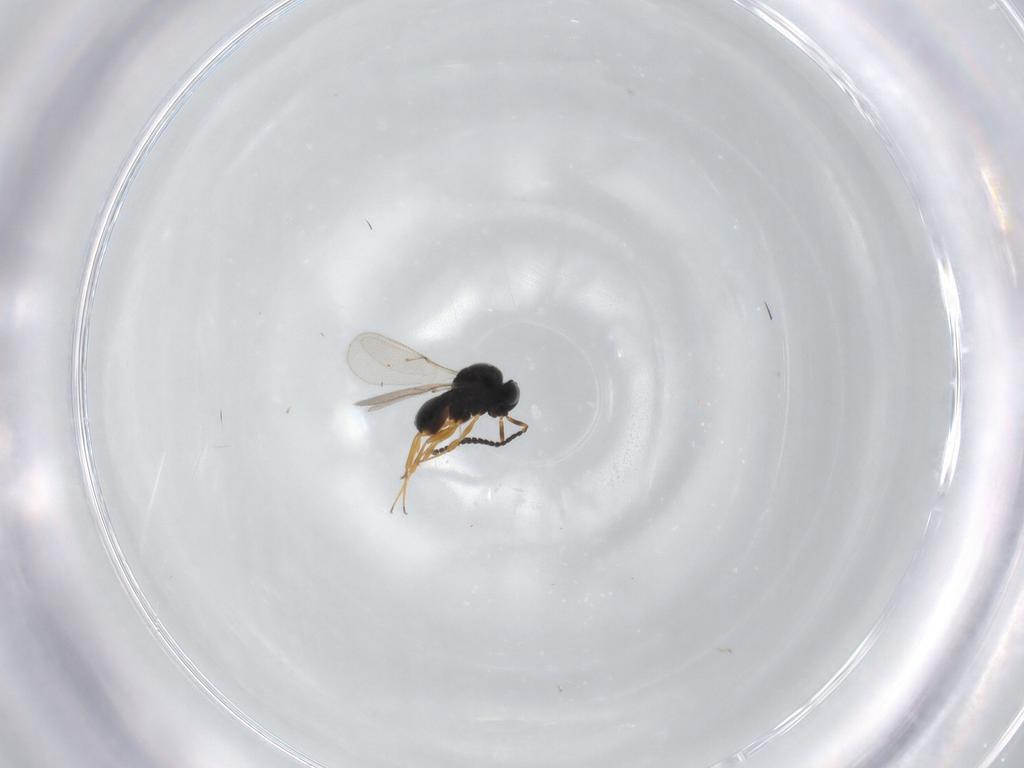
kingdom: Animalia
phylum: Arthropoda
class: Insecta
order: Hymenoptera
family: Scelionidae
